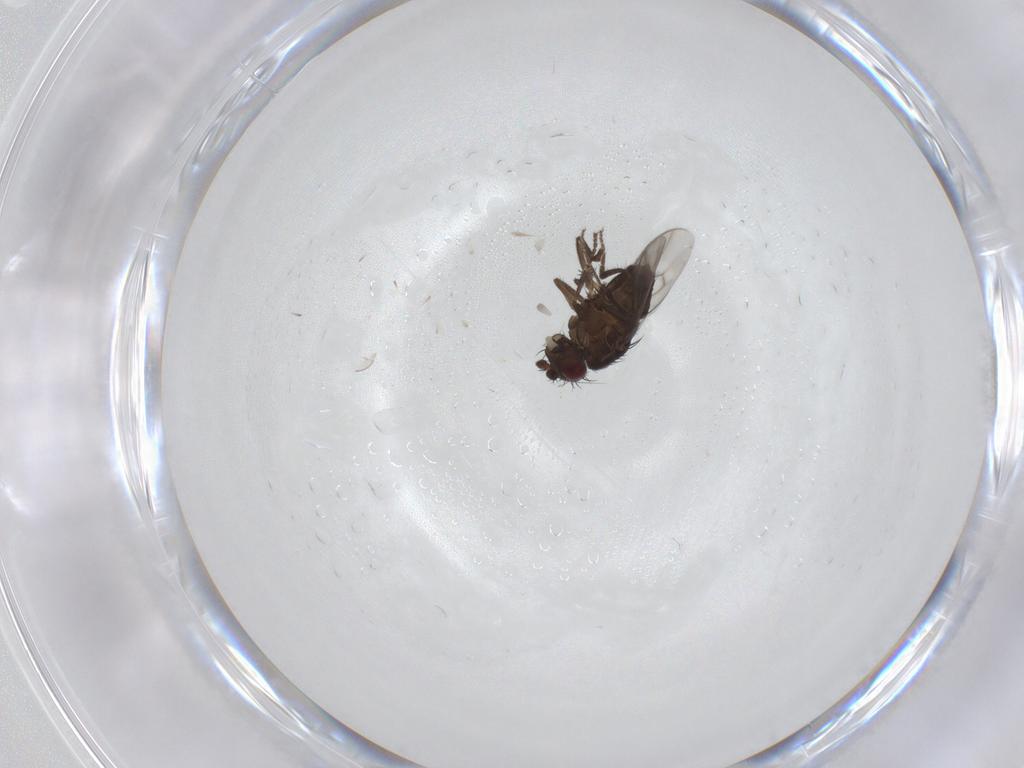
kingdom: Animalia
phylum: Arthropoda
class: Insecta
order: Diptera
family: Sphaeroceridae
